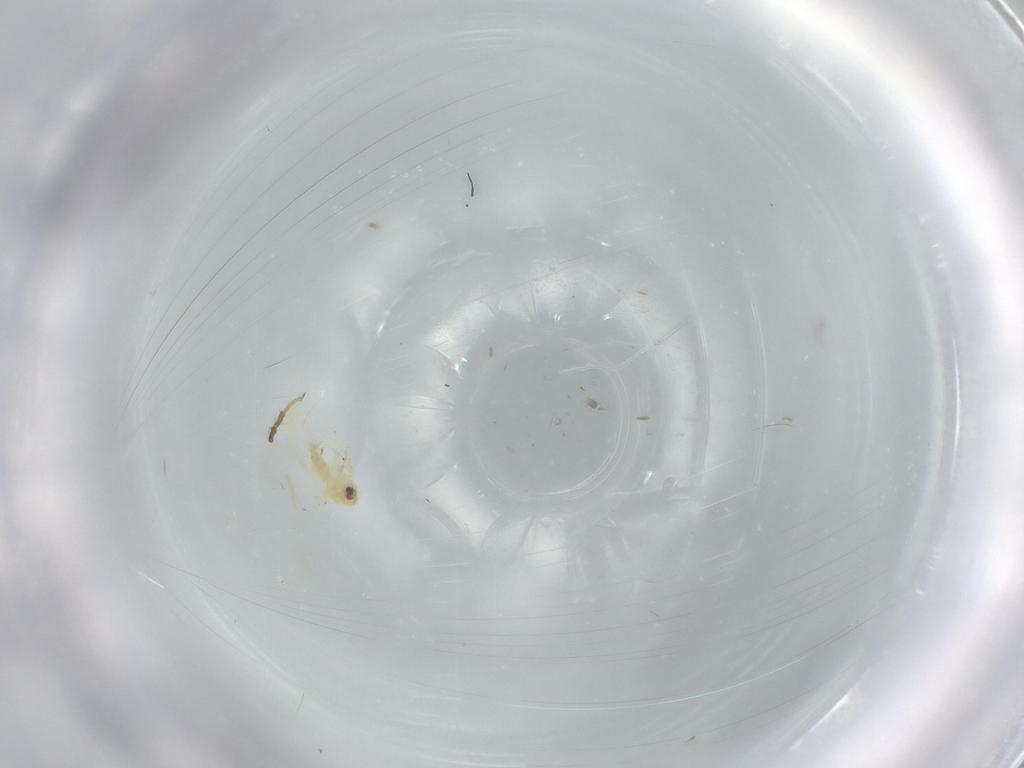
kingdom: Animalia
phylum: Arthropoda
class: Insecta
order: Diptera
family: Chironomidae
